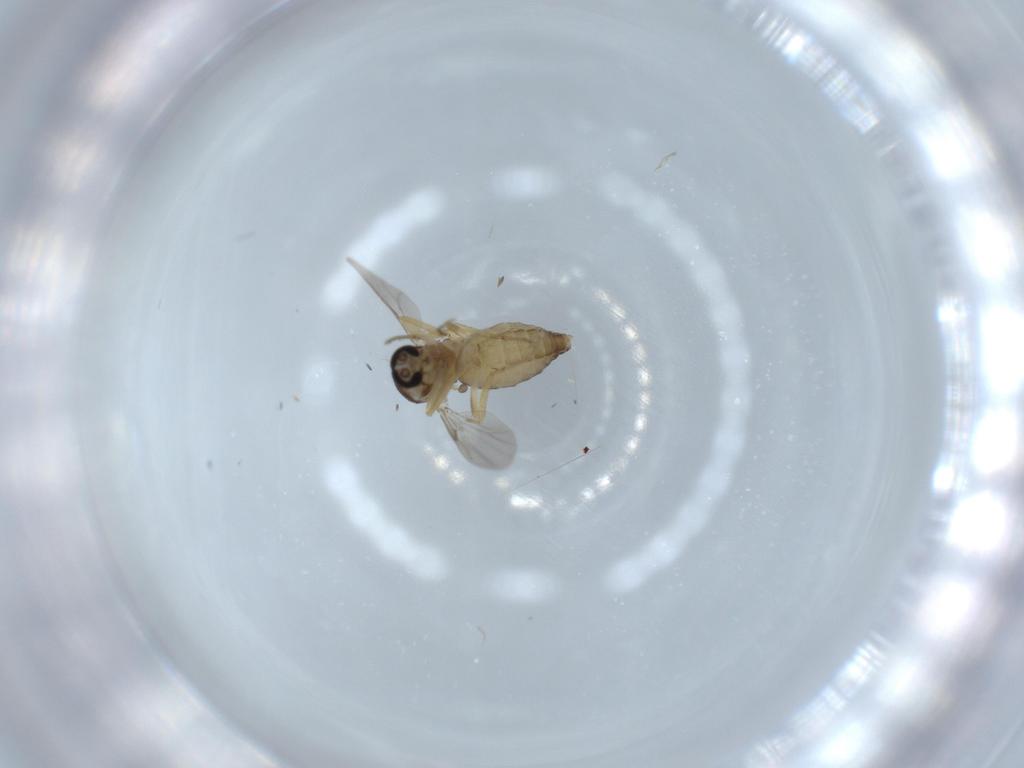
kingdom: Animalia
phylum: Arthropoda
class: Insecta
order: Diptera
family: Ceratopogonidae
